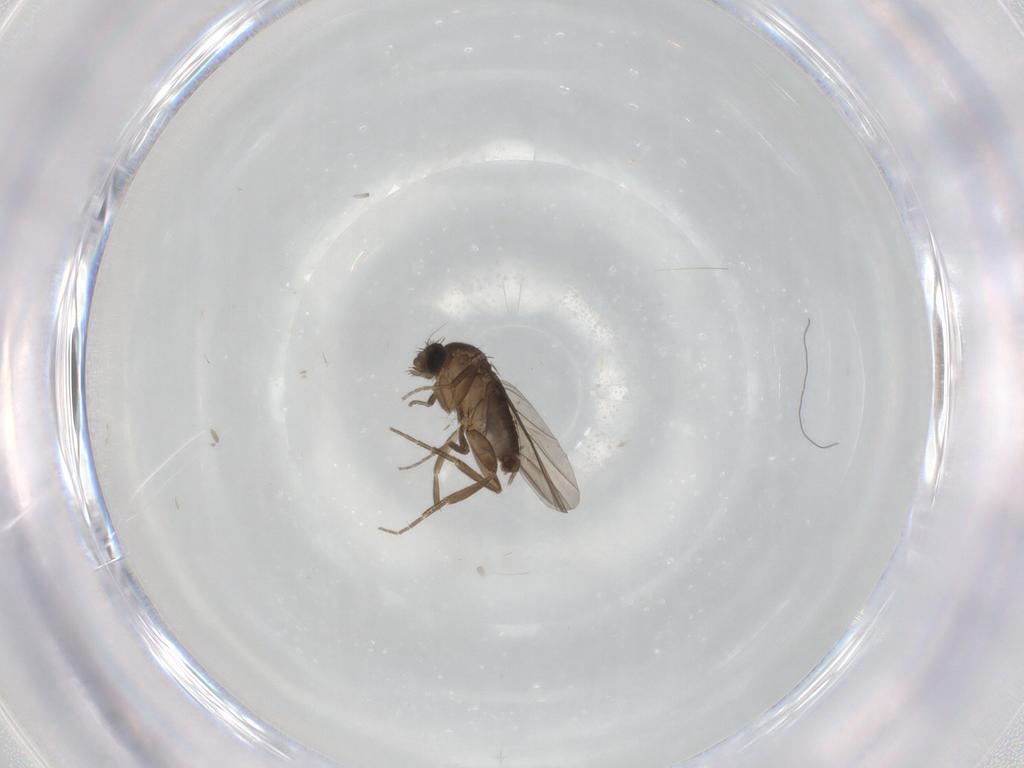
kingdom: Animalia
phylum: Arthropoda
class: Insecta
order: Diptera
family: Phoridae
